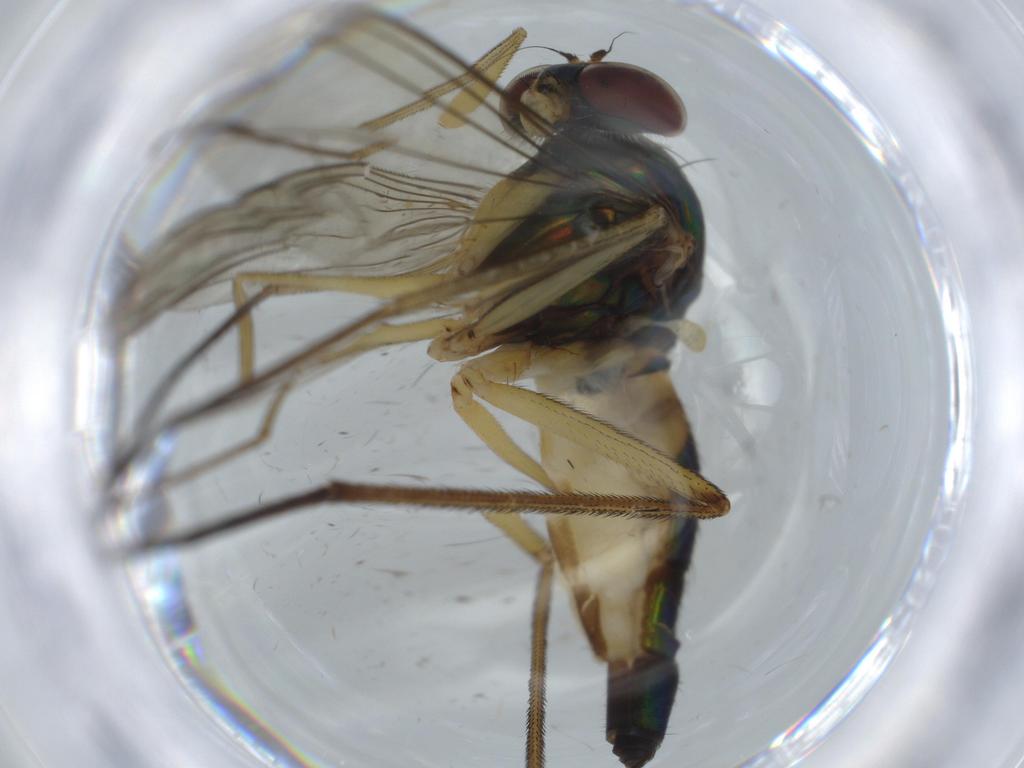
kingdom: Animalia
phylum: Arthropoda
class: Insecta
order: Diptera
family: Dolichopodidae
